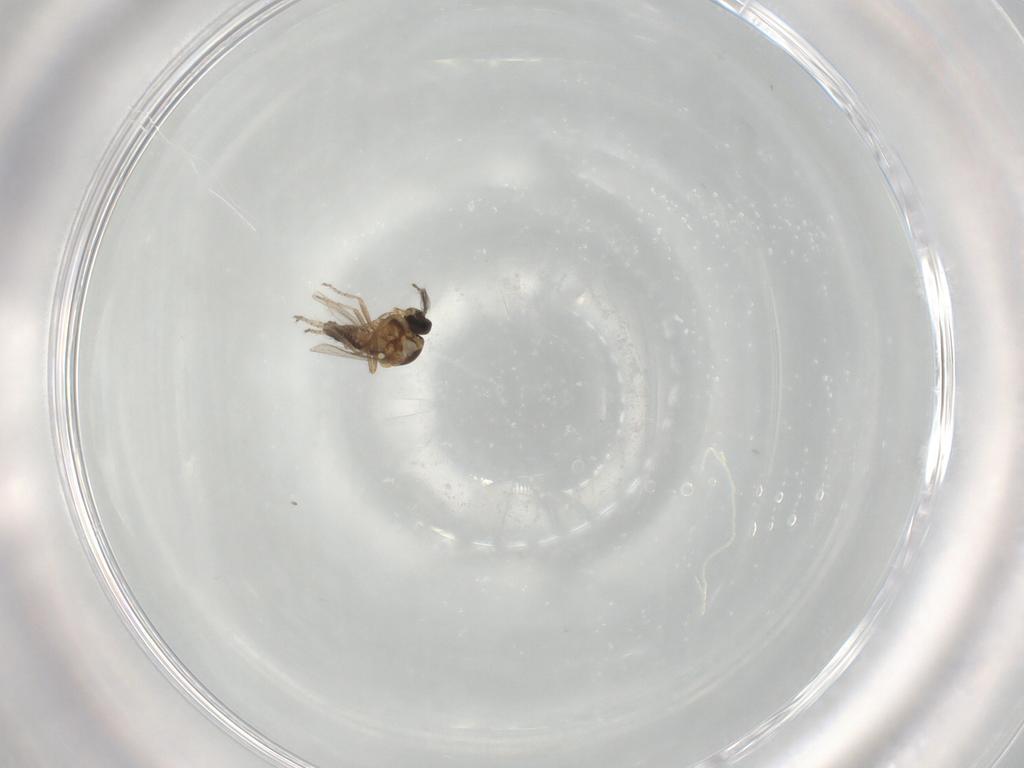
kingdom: Animalia
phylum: Arthropoda
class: Insecta
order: Diptera
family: Ceratopogonidae
